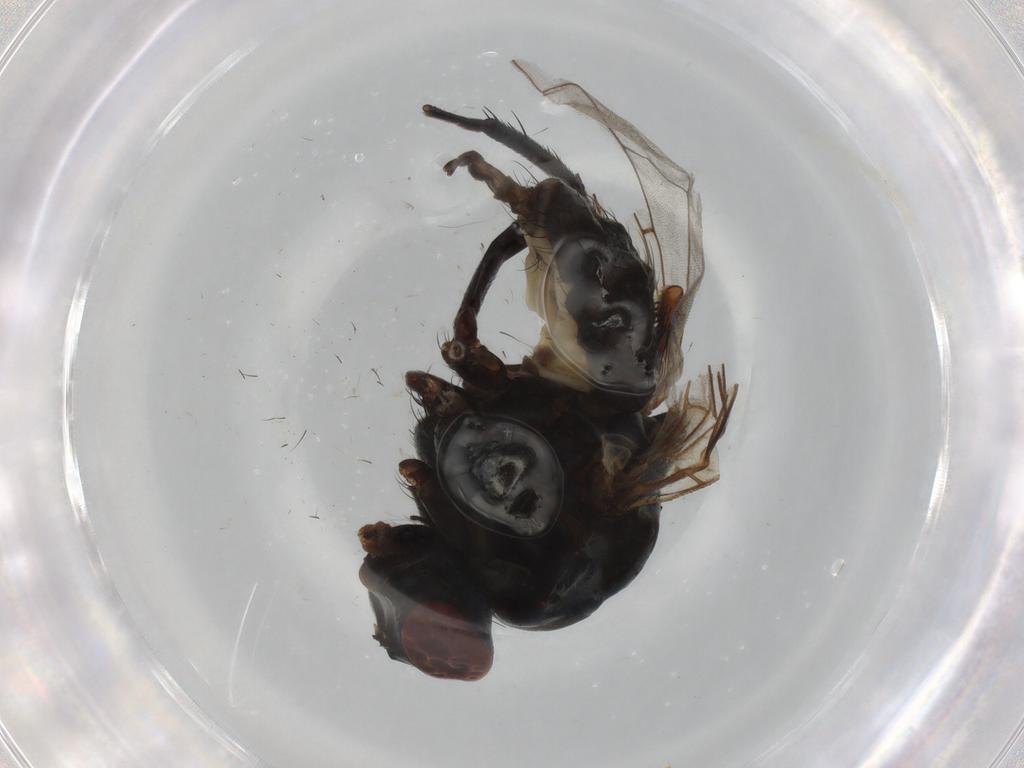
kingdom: Animalia
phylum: Arthropoda
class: Insecta
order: Diptera
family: Anthomyiidae
